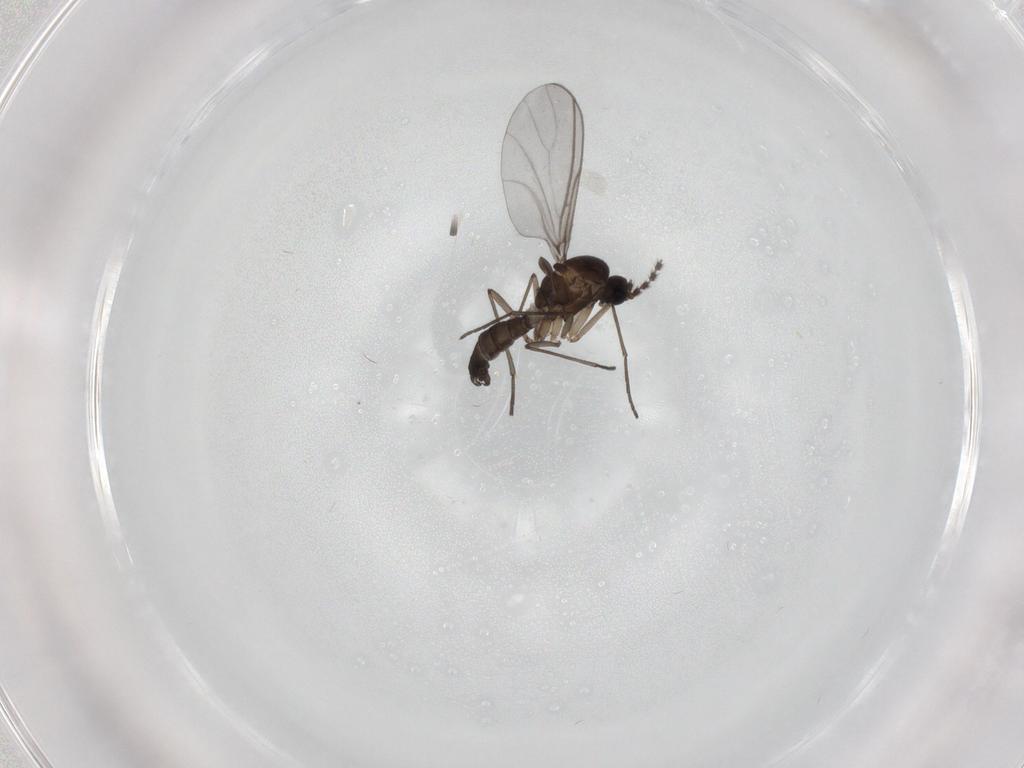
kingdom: Animalia
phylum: Arthropoda
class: Insecta
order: Diptera
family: Sciaridae
